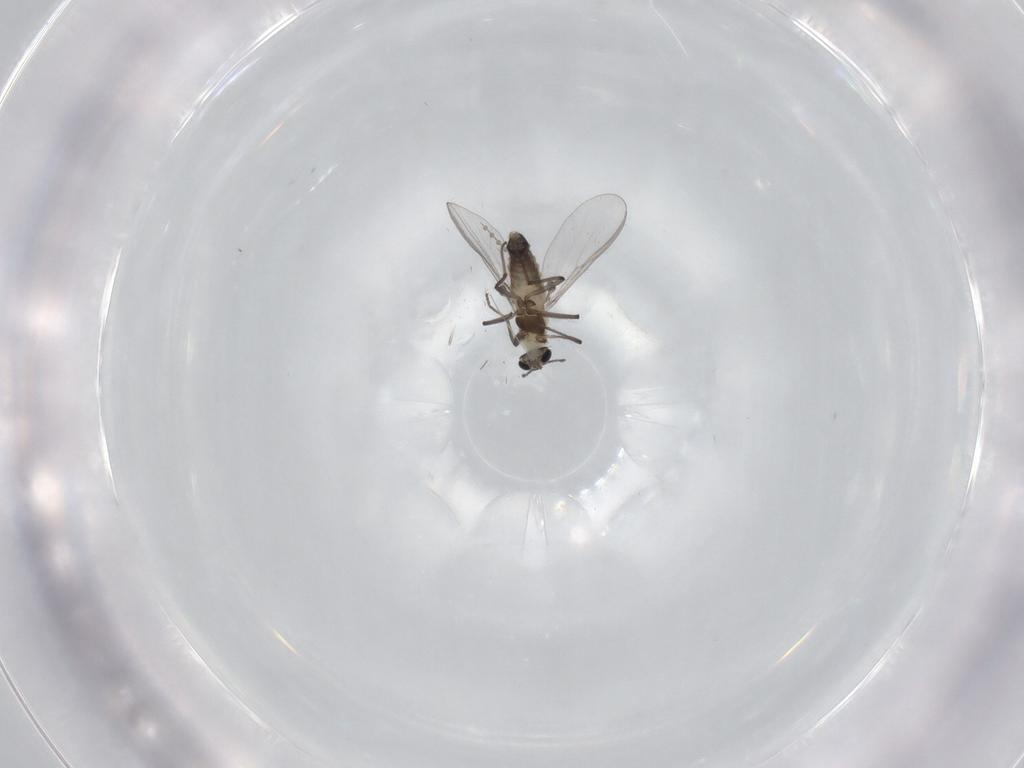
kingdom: Animalia
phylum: Arthropoda
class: Insecta
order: Diptera
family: Chironomidae
